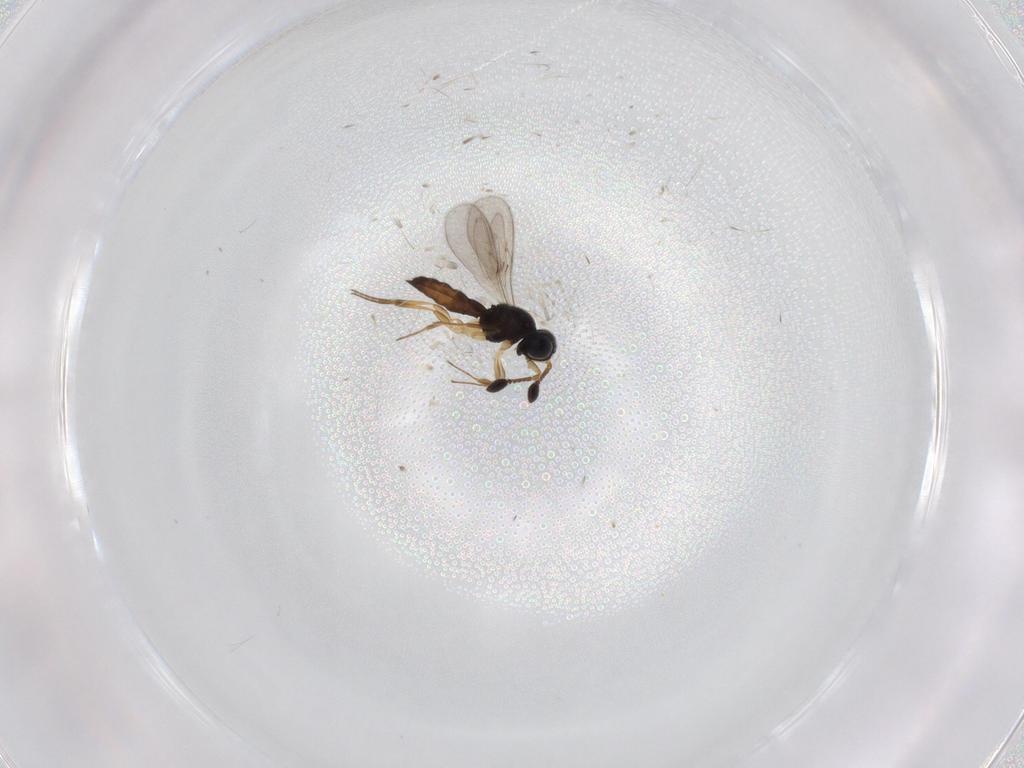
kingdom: Animalia
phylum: Arthropoda
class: Insecta
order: Hymenoptera
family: Scelionidae
